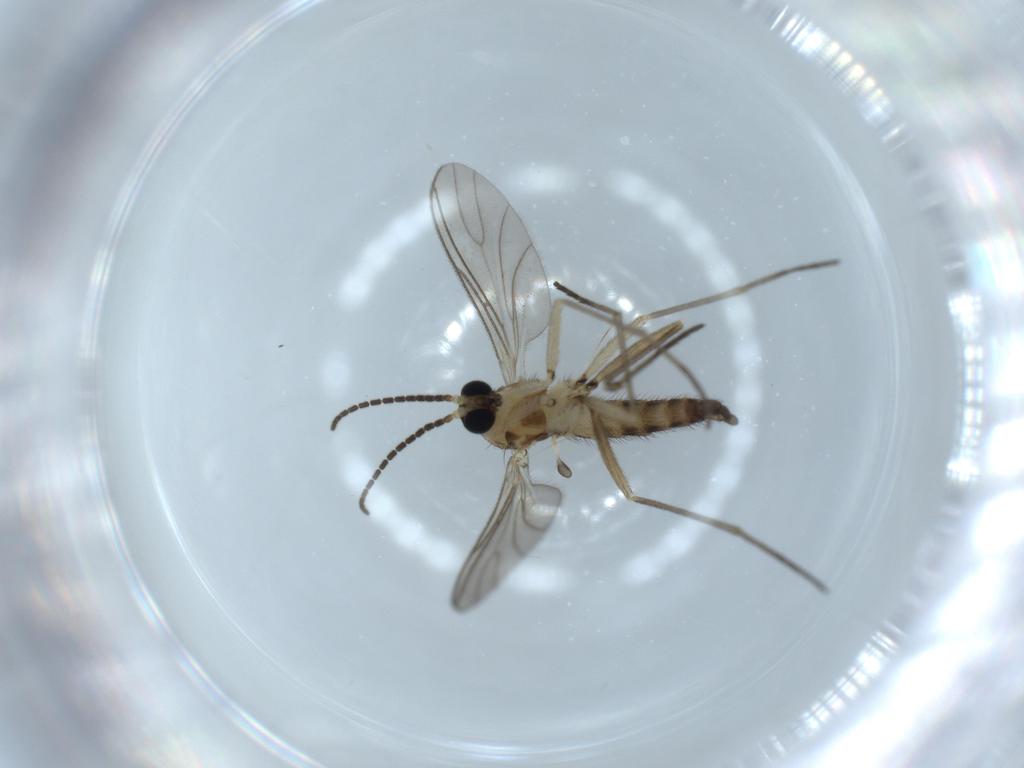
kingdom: Animalia
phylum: Arthropoda
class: Insecta
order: Diptera
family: Sciaridae
